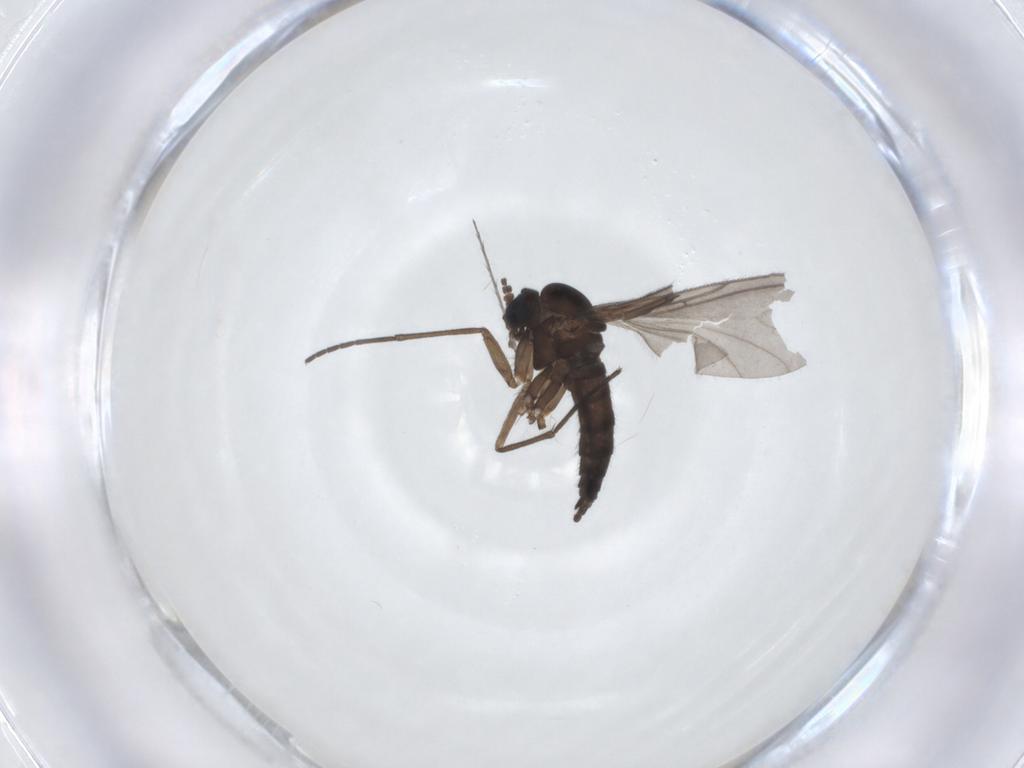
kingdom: Animalia
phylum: Arthropoda
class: Insecta
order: Diptera
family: Sciaridae
